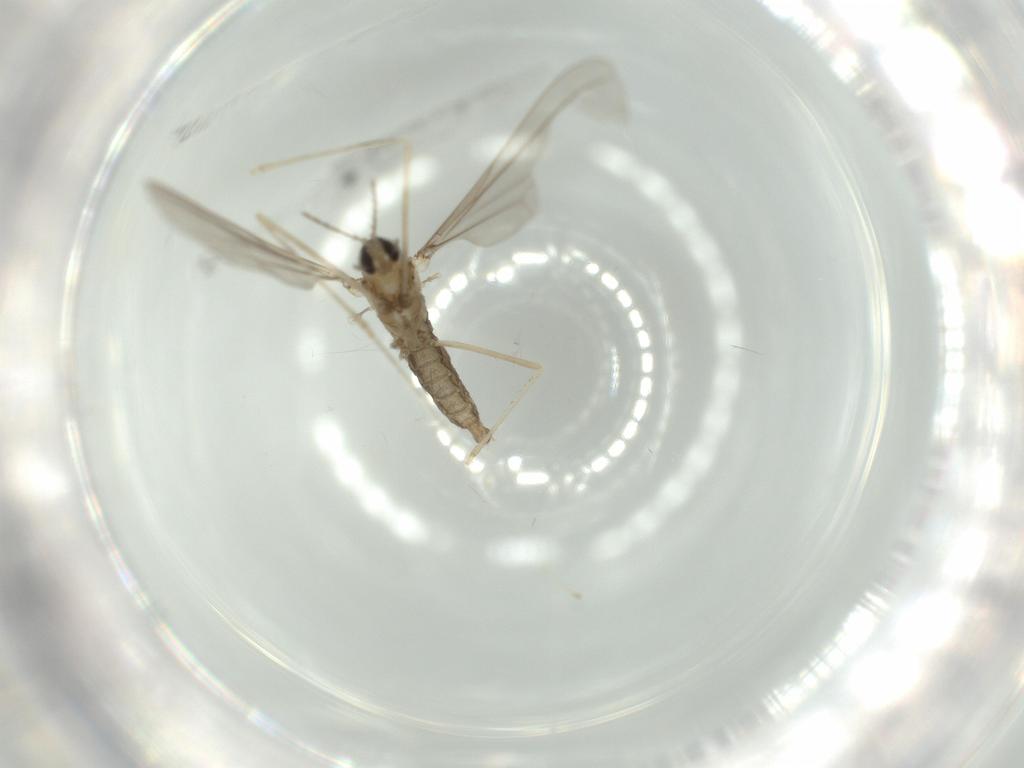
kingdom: Animalia
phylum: Arthropoda
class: Insecta
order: Diptera
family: Cecidomyiidae
